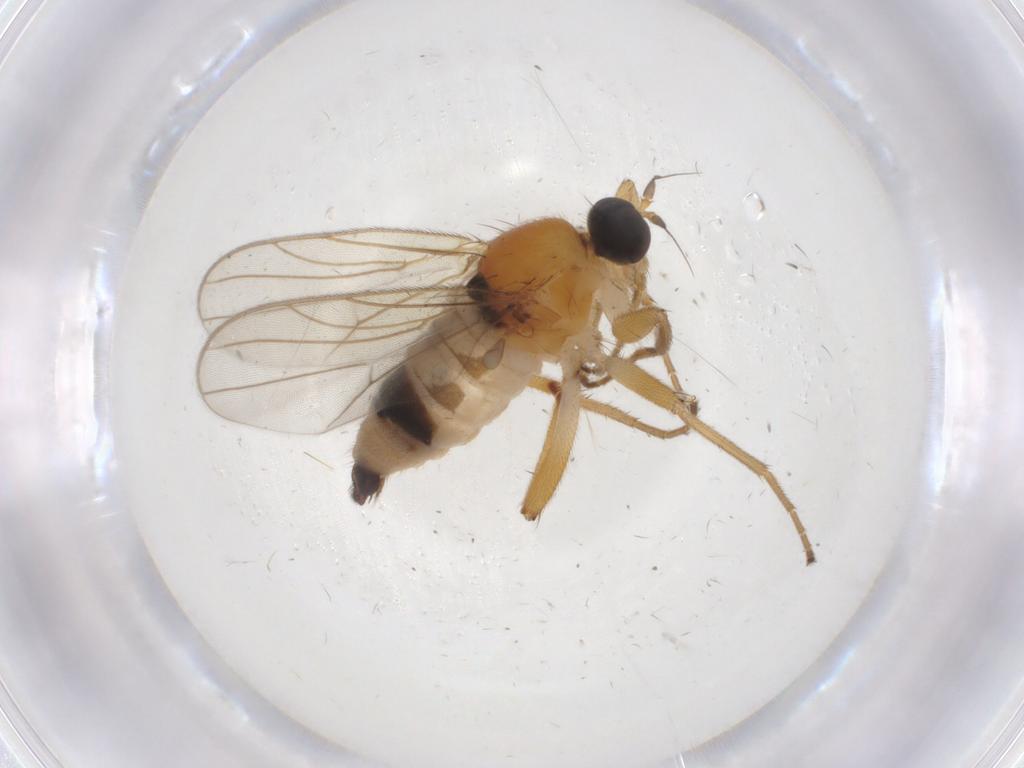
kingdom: Animalia
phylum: Arthropoda
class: Insecta
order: Diptera
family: Hybotidae
